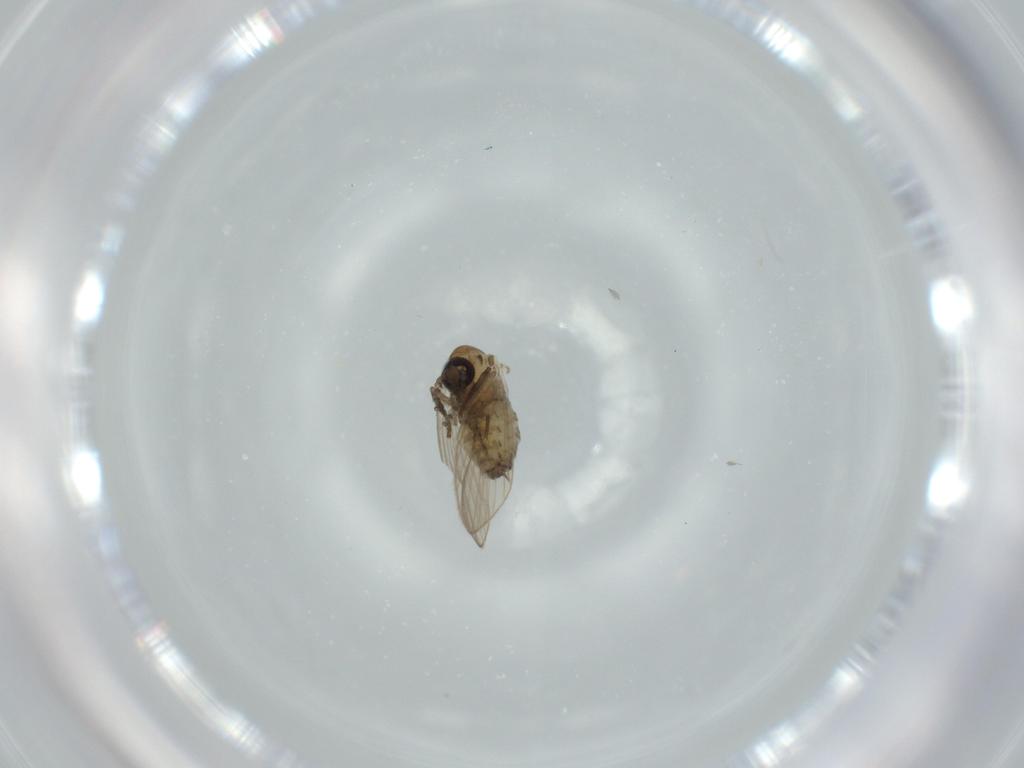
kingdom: Animalia
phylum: Arthropoda
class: Insecta
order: Diptera
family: Psychodidae
